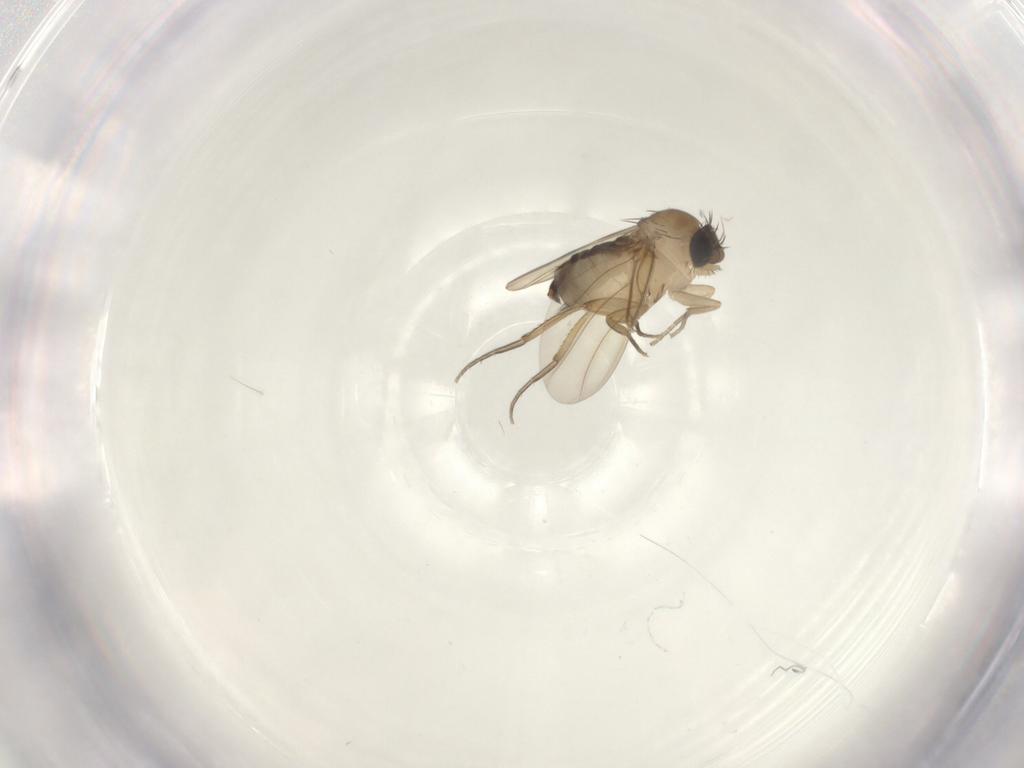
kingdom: Animalia
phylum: Arthropoda
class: Insecta
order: Diptera
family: Phoridae
